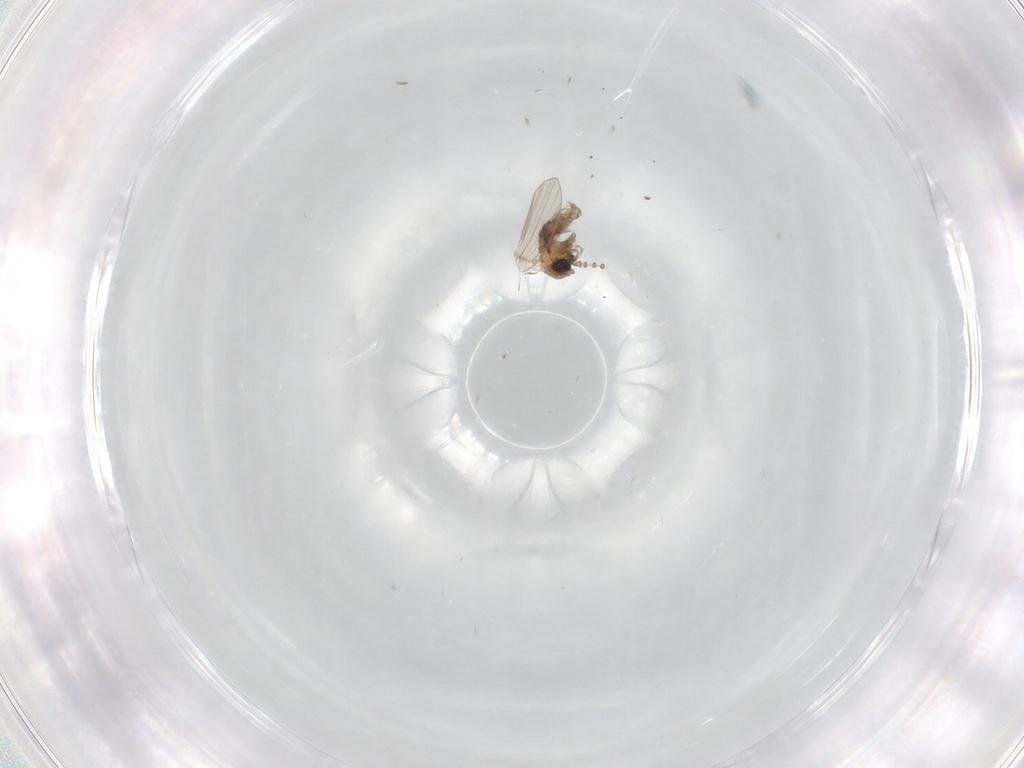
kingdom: Animalia
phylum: Arthropoda
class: Insecta
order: Diptera
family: Psychodidae
